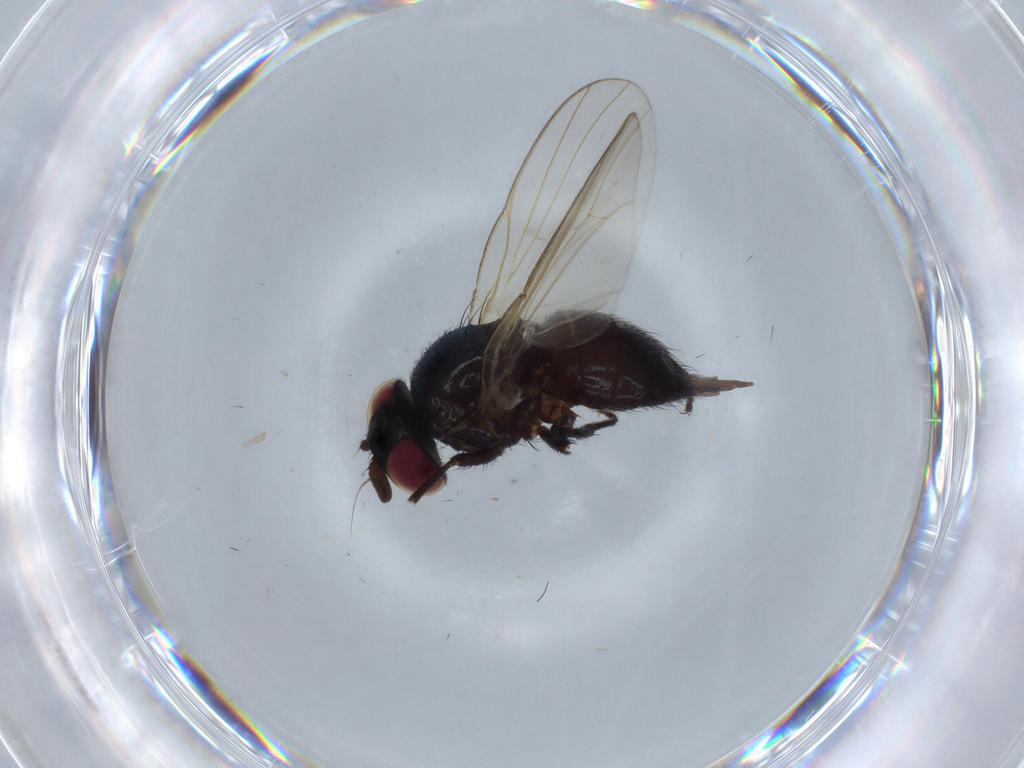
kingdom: Animalia
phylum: Arthropoda
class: Insecta
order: Diptera
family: Lonchaeidae
